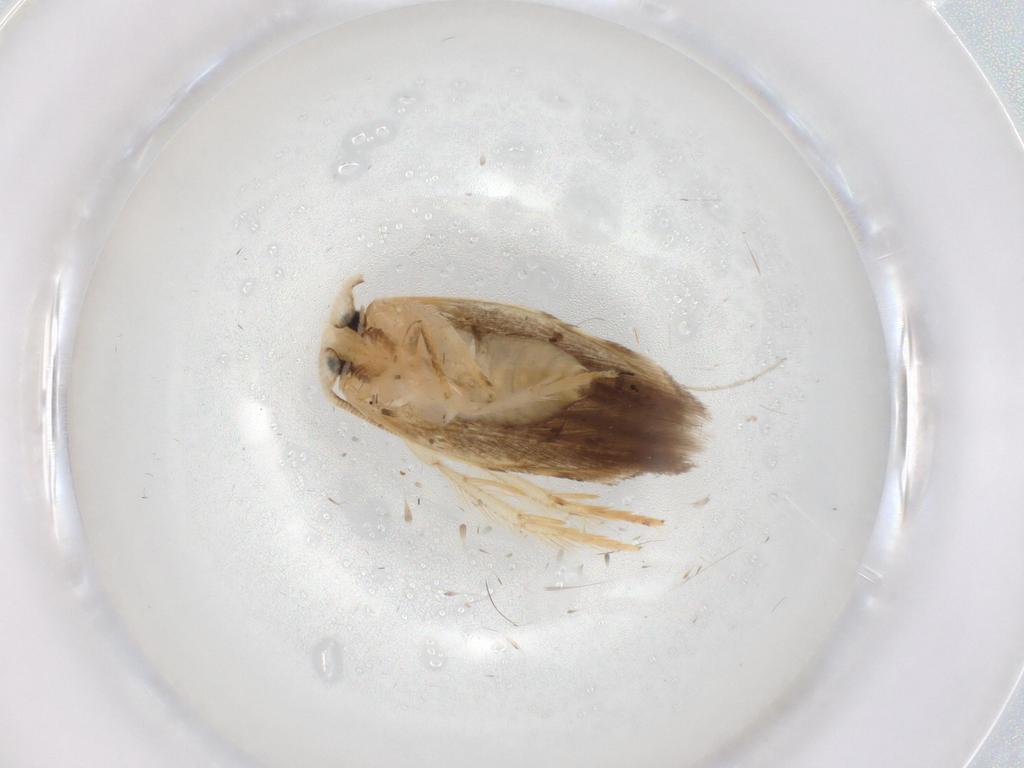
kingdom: Animalia
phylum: Arthropoda
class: Insecta
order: Lepidoptera
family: Opostegidae
